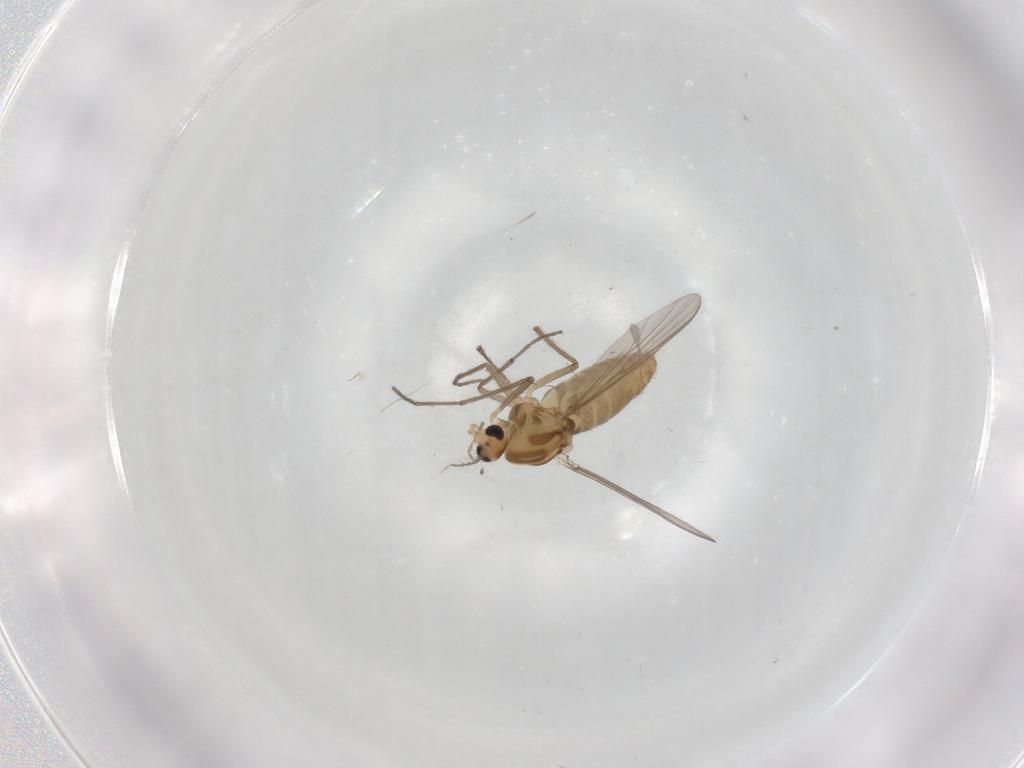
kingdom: Animalia
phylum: Arthropoda
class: Insecta
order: Diptera
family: Chironomidae
